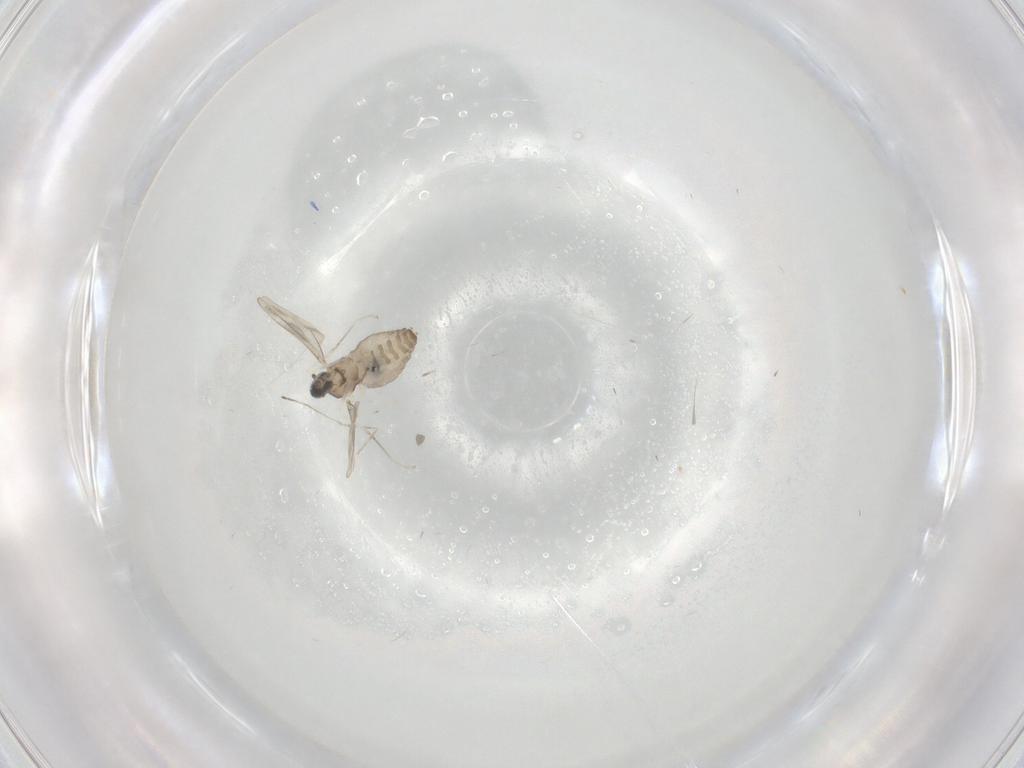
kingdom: Animalia
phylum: Arthropoda
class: Insecta
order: Diptera
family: Cecidomyiidae
